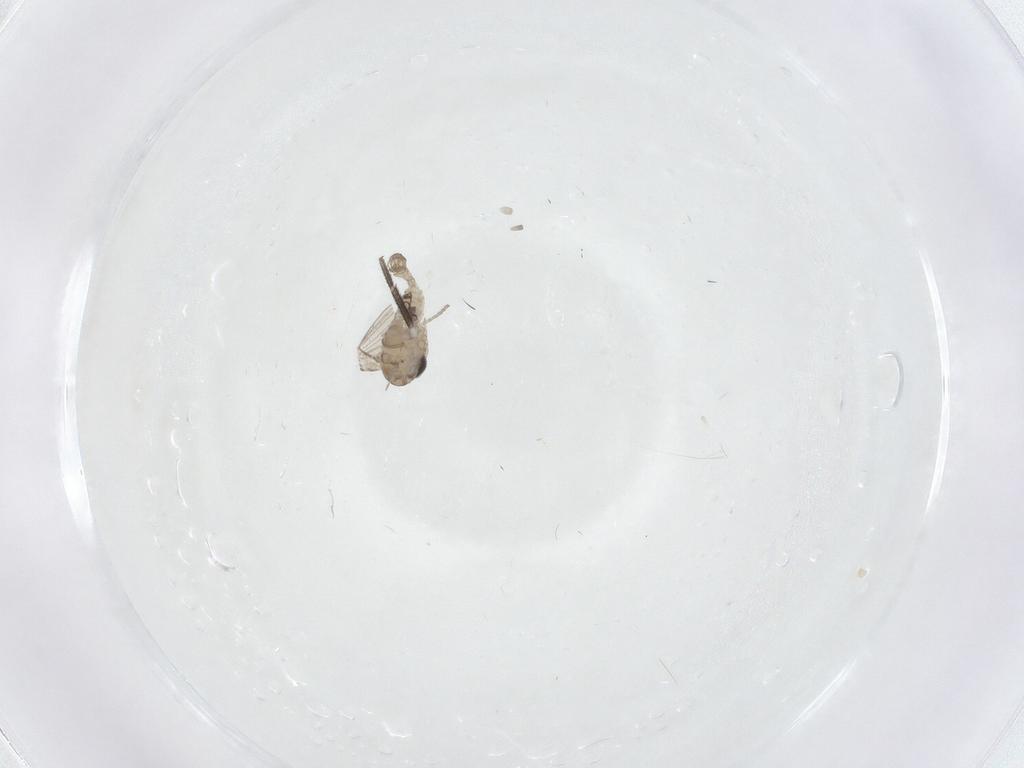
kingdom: Animalia
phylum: Arthropoda
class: Insecta
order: Diptera
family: Psychodidae
